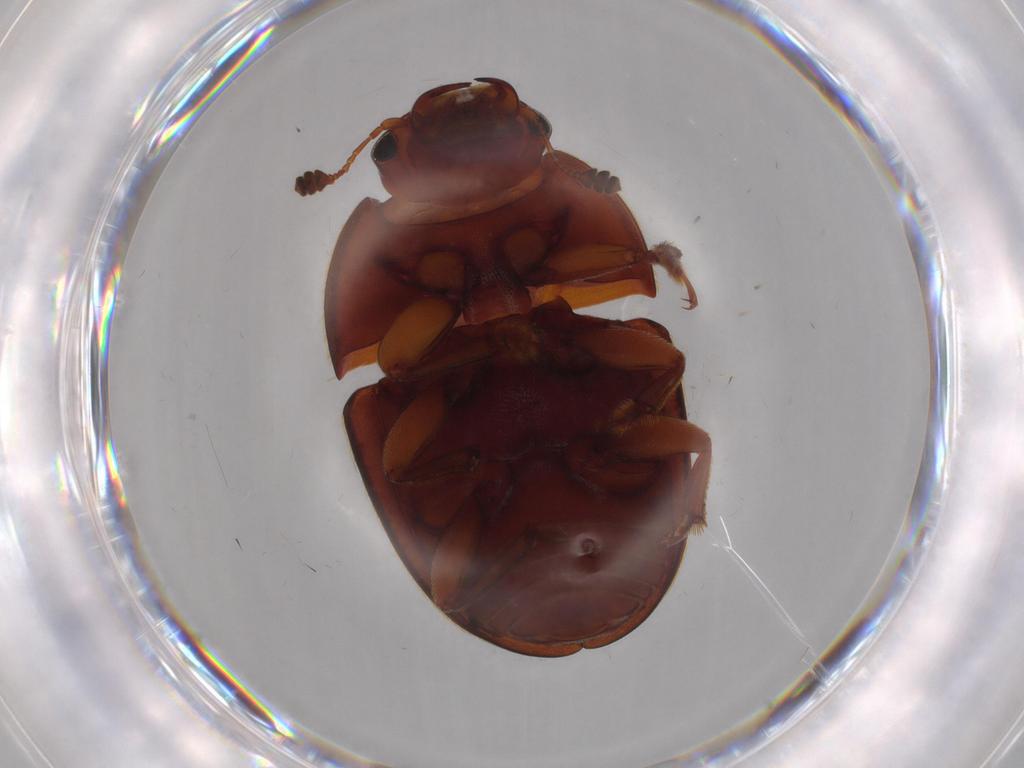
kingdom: Animalia
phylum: Arthropoda
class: Insecta
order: Coleoptera
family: Nitidulidae
